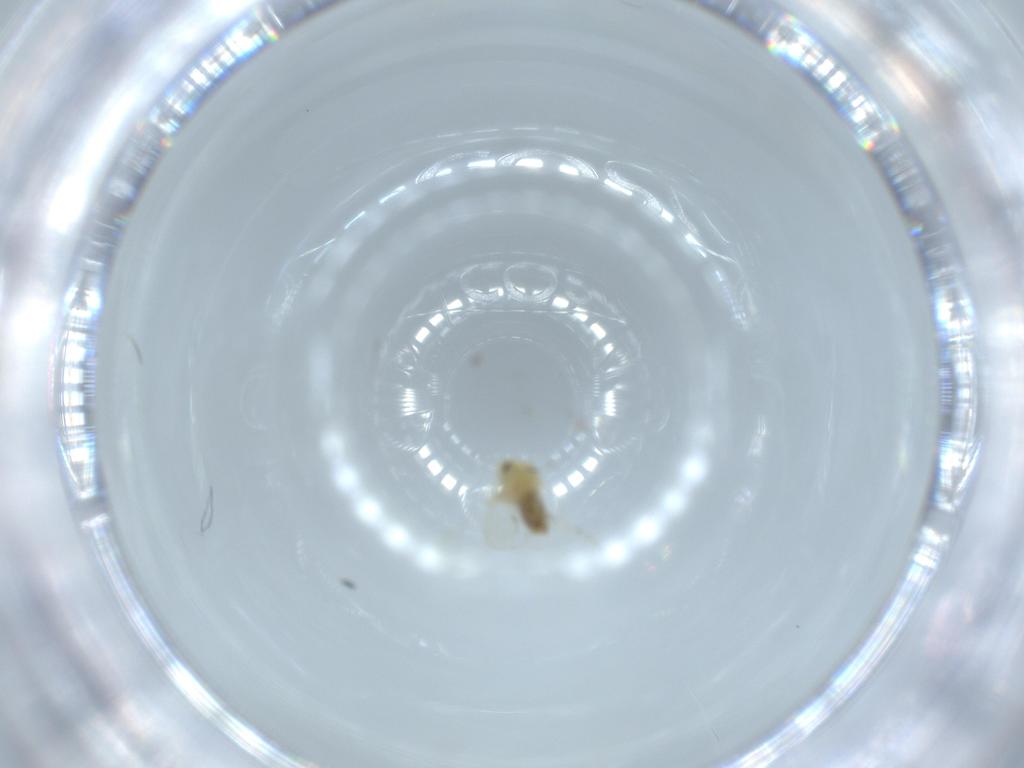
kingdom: Animalia
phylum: Arthropoda
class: Insecta
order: Hemiptera
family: Aleyrodidae
